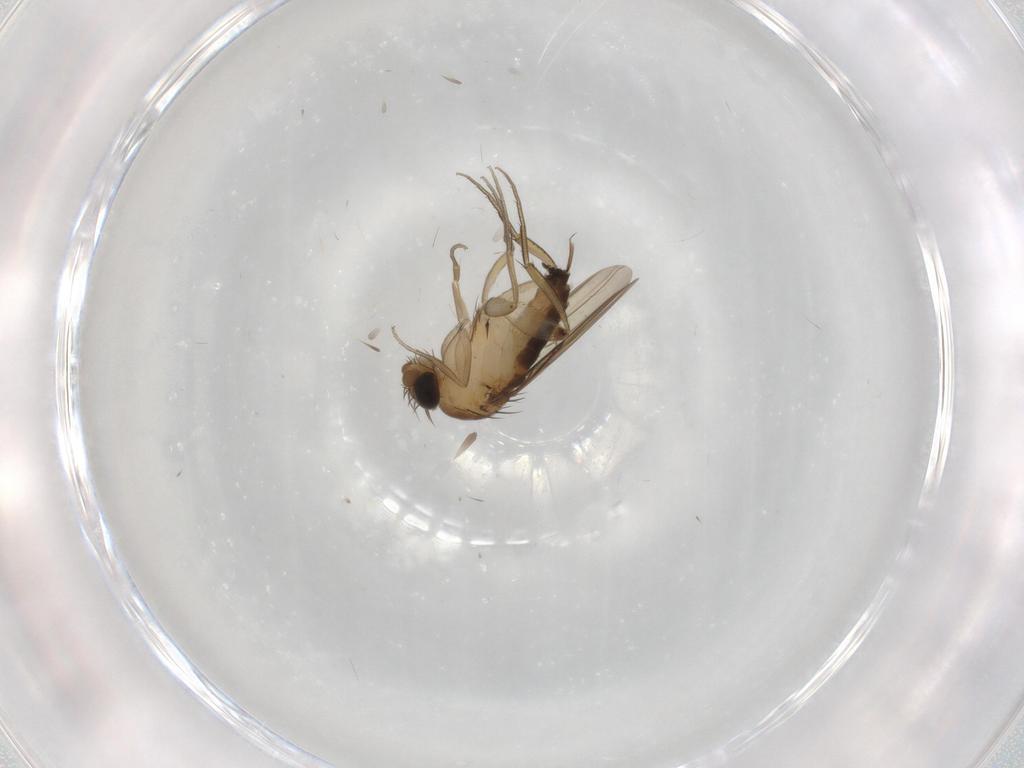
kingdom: Animalia
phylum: Arthropoda
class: Insecta
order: Diptera
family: Phoridae
